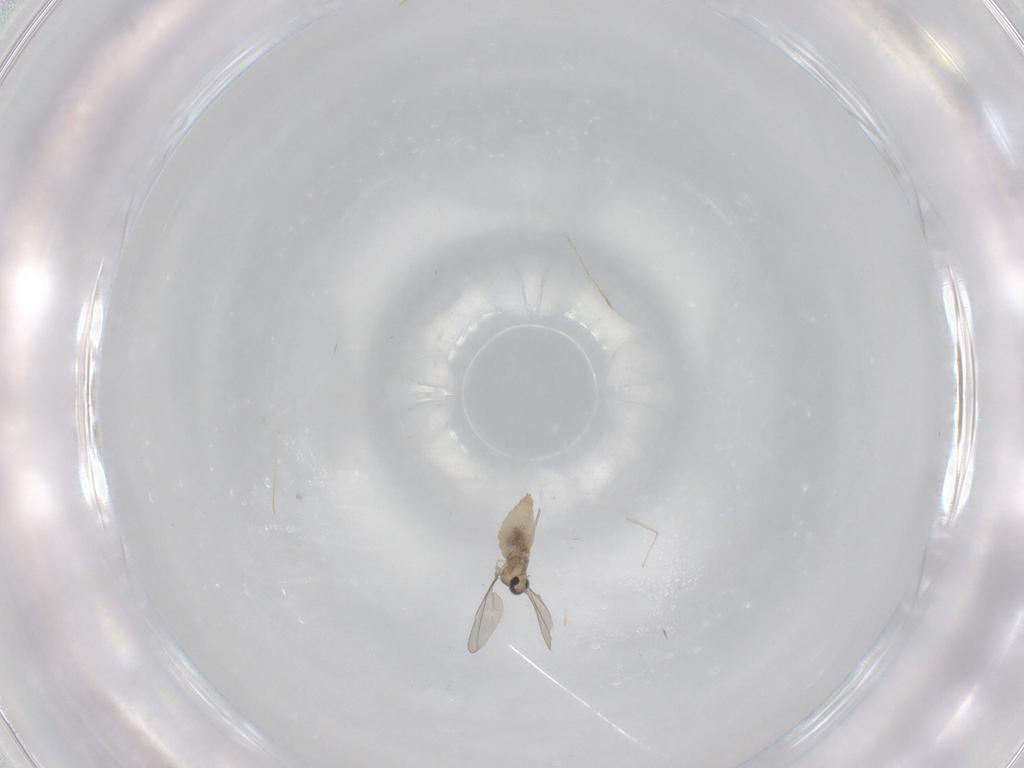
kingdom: Animalia
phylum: Arthropoda
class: Insecta
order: Diptera
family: Cecidomyiidae
